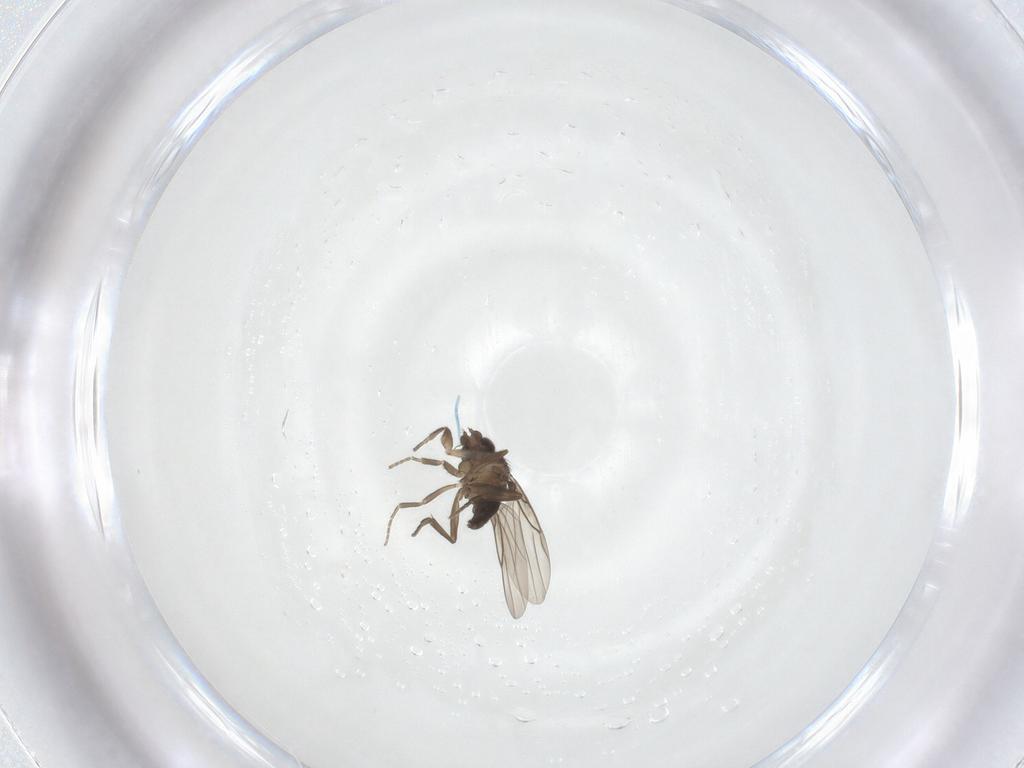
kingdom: Animalia
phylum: Arthropoda
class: Insecta
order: Diptera
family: Phoridae
